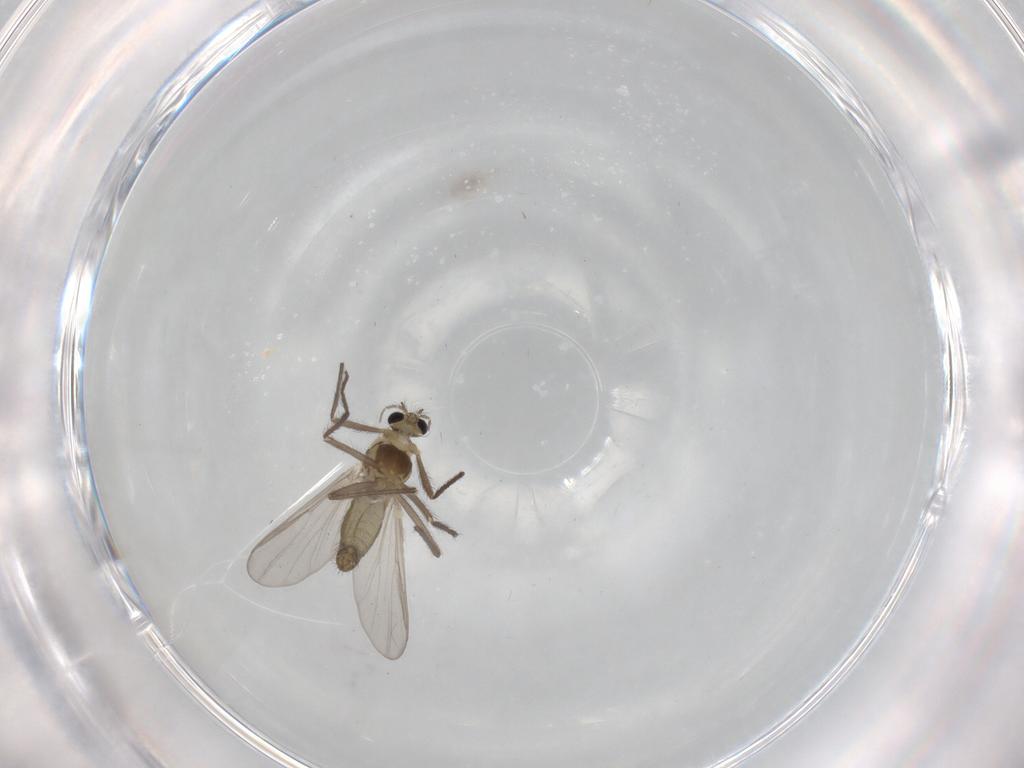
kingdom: Animalia
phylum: Arthropoda
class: Insecta
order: Diptera
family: Chironomidae
